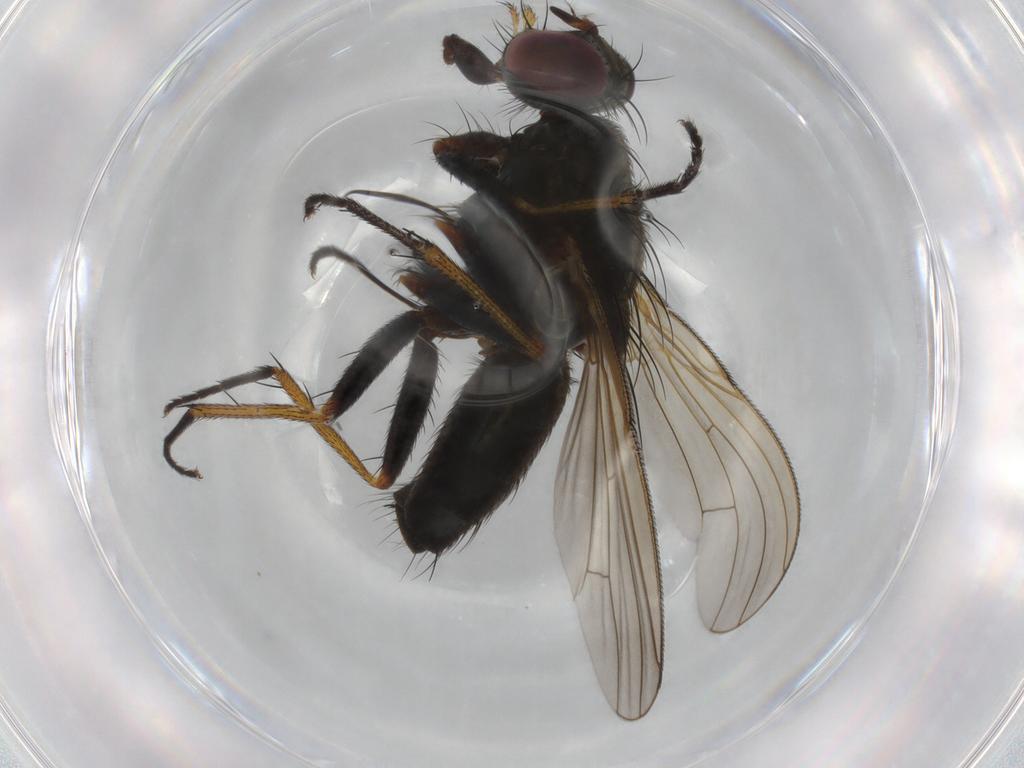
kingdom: Animalia
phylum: Arthropoda
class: Insecta
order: Diptera
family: Muscidae
